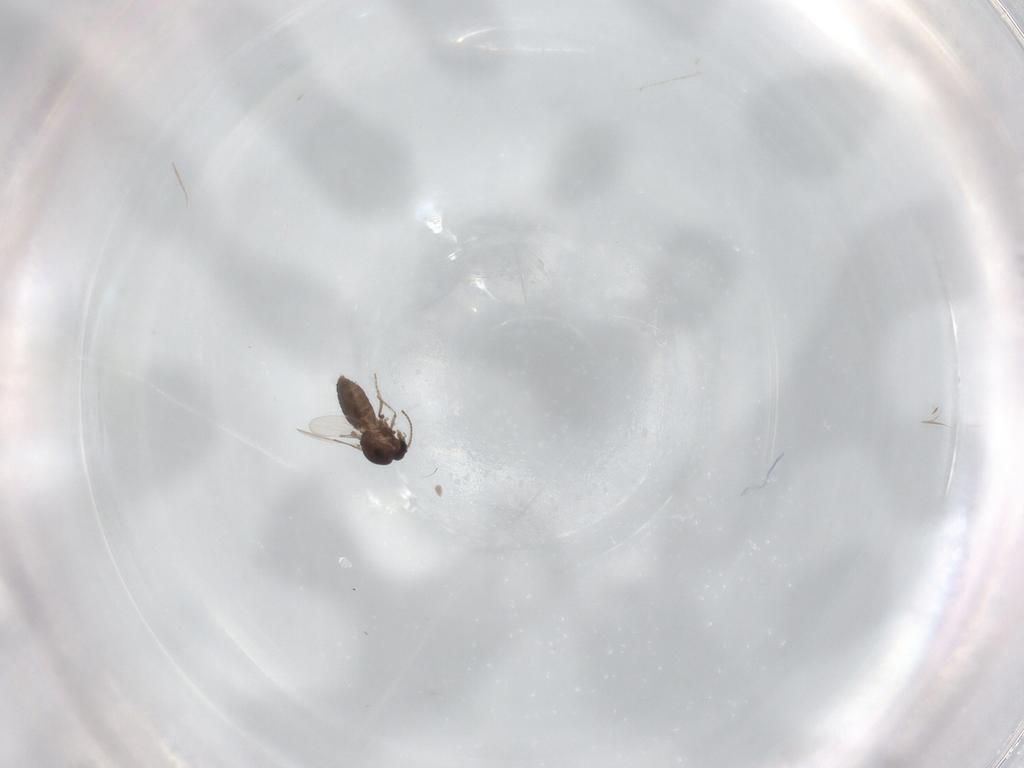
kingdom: Animalia
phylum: Arthropoda
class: Insecta
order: Diptera
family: Ceratopogonidae
